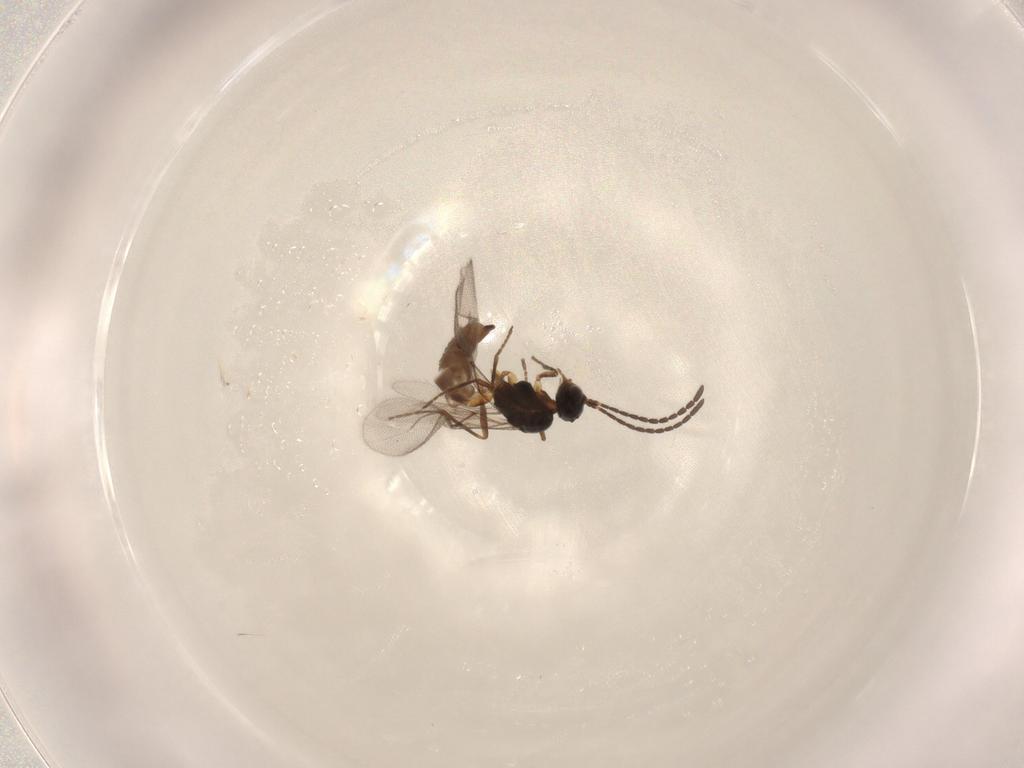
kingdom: Animalia
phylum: Arthropoda
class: Insecta
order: Hymenoptera
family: Braconidae
